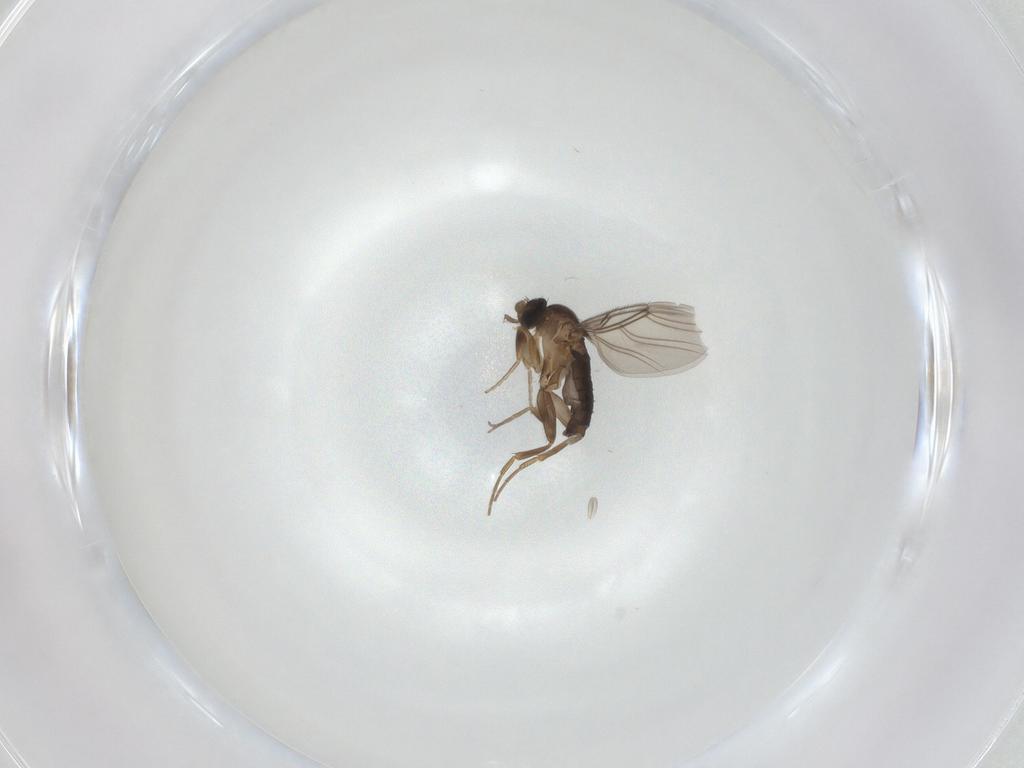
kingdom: Animalia
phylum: Arthropoda
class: Insecta
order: Diptera
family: Phoridae
